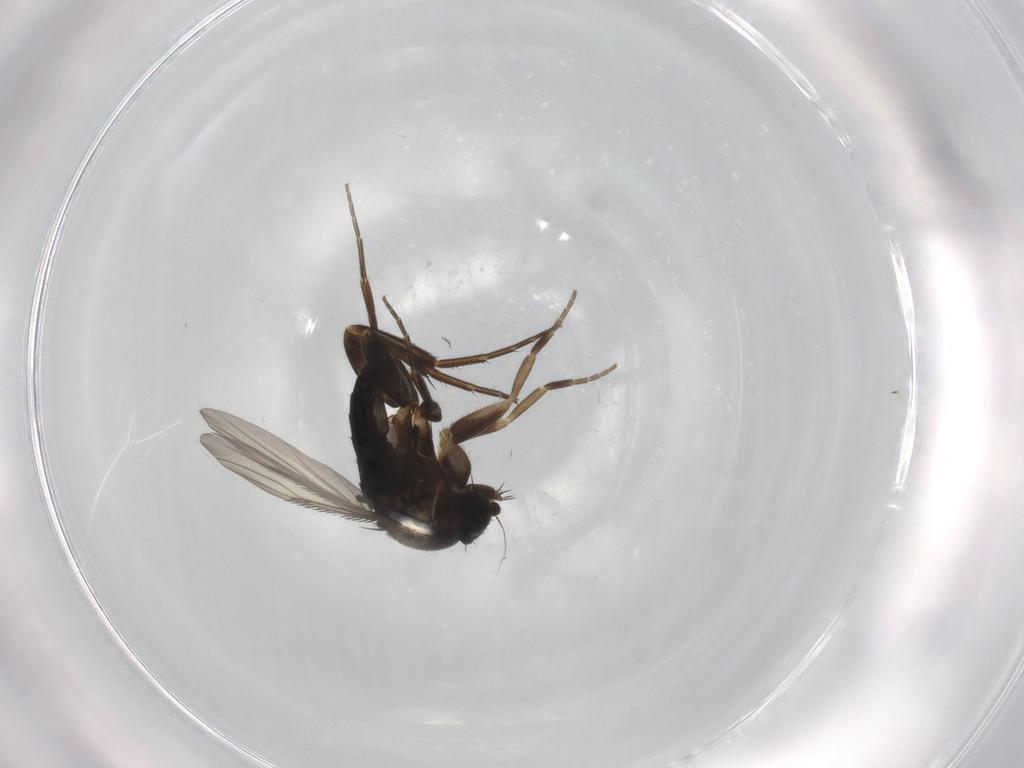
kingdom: Animalia
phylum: Arthropoda
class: Insecta
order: Diptera
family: Phoridae
